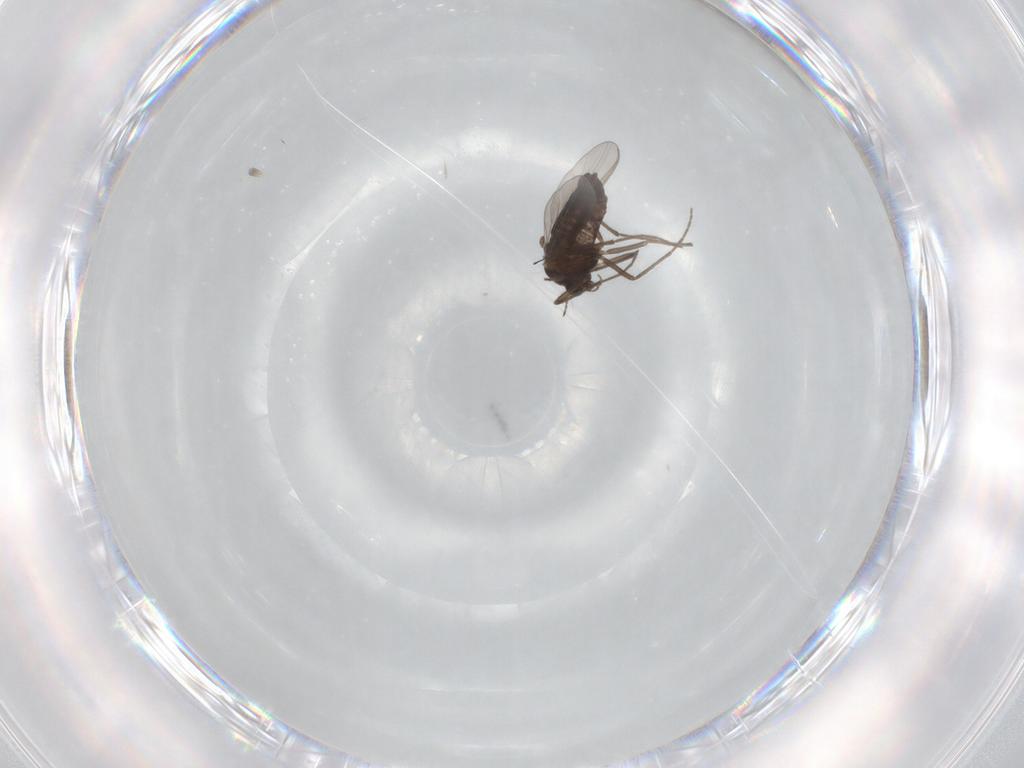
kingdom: Animalia
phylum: Arthropoda
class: Insecta
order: Diptera
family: Chironomidae
